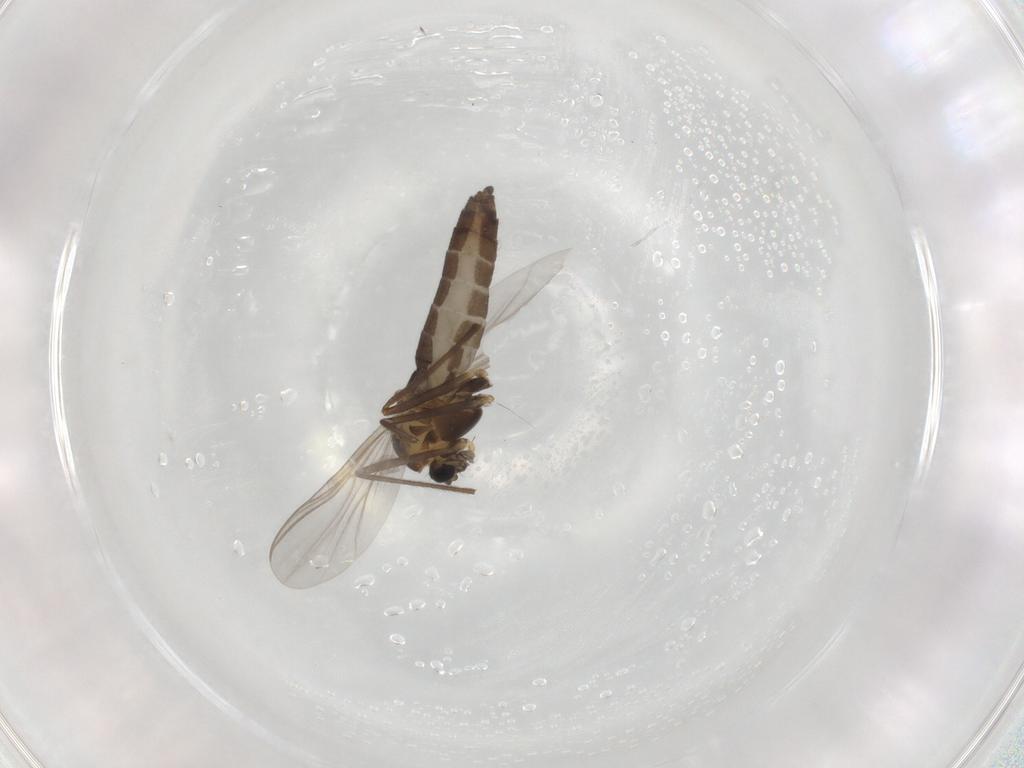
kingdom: Animalia
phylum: Arthropoda
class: Insecta
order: Diptera
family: Chironomidae
